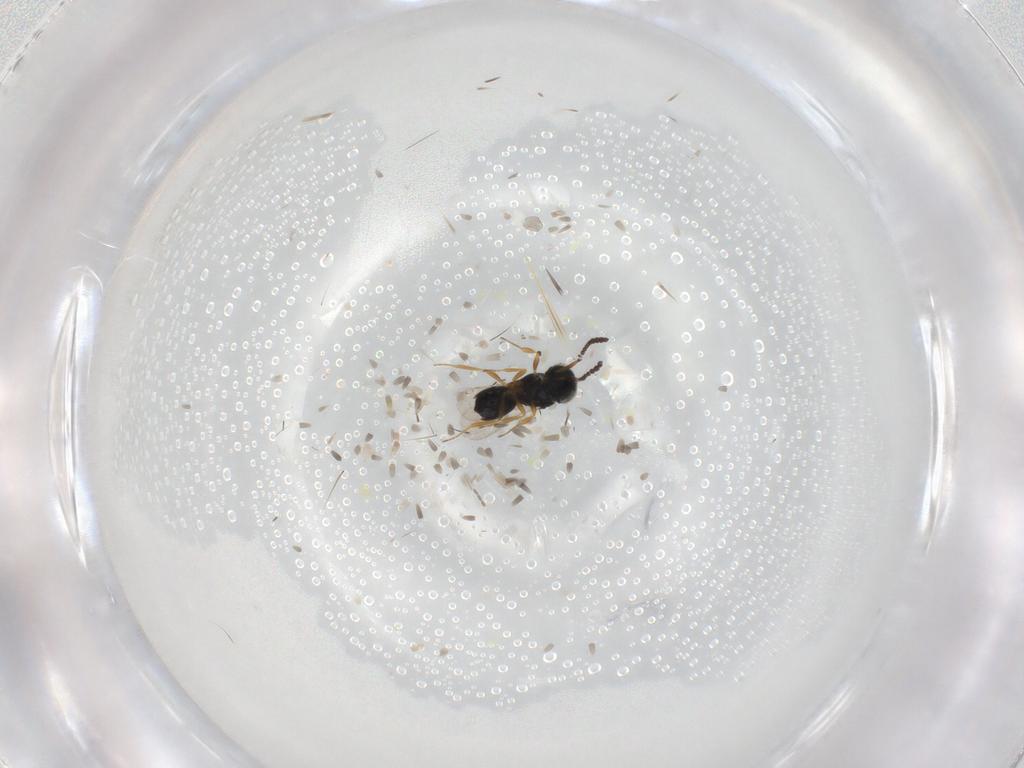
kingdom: Animalia
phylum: Arthropoda
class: Insecta
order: Hymenoptera
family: Scelionidae
